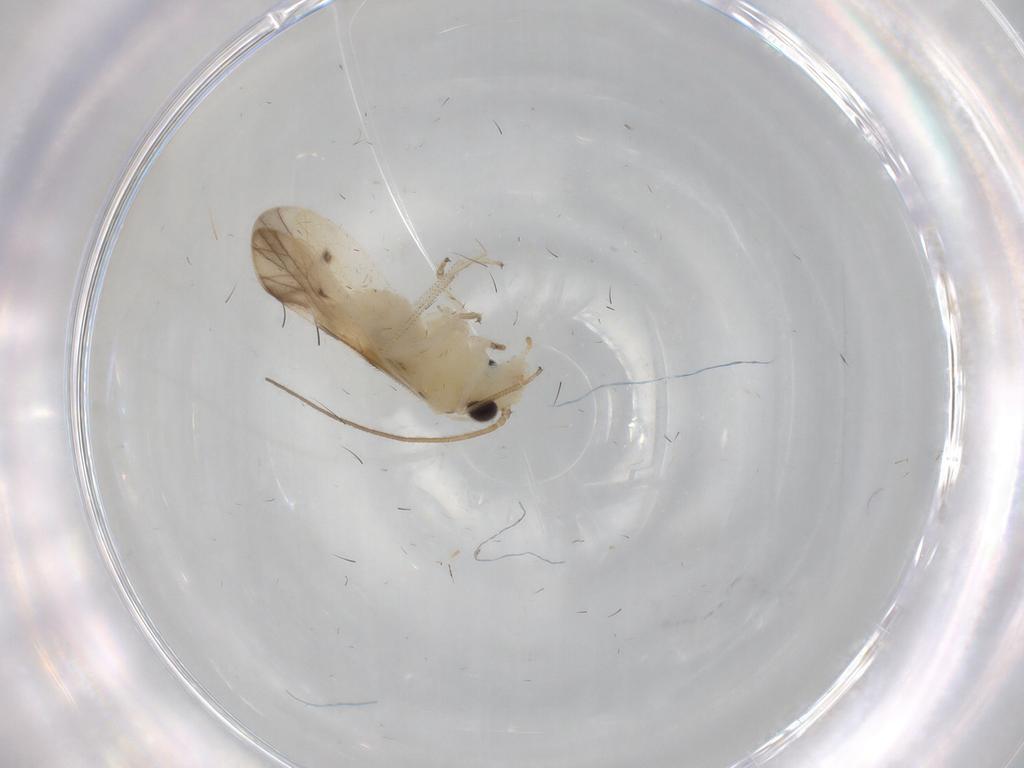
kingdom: Animalia
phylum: Arthropoda
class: Insecta
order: Psocodea
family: Caeciliusidae
